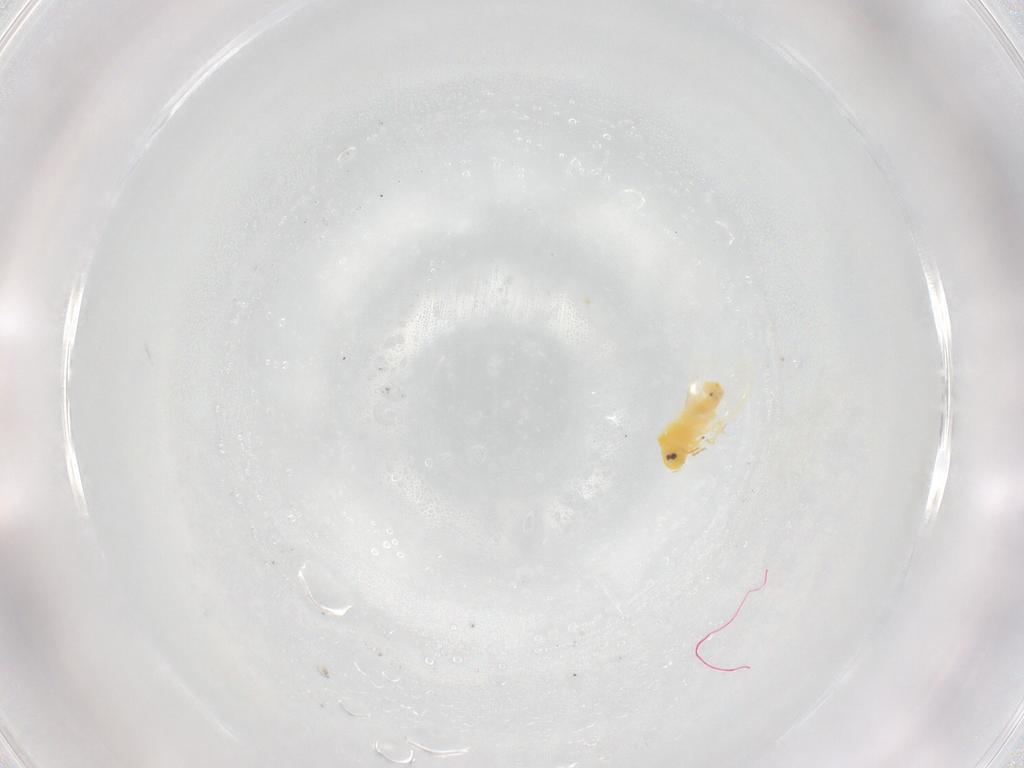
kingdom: Animalia
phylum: Arthropoda
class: Insecta
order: Hemiptera
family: Aleyrodidae
